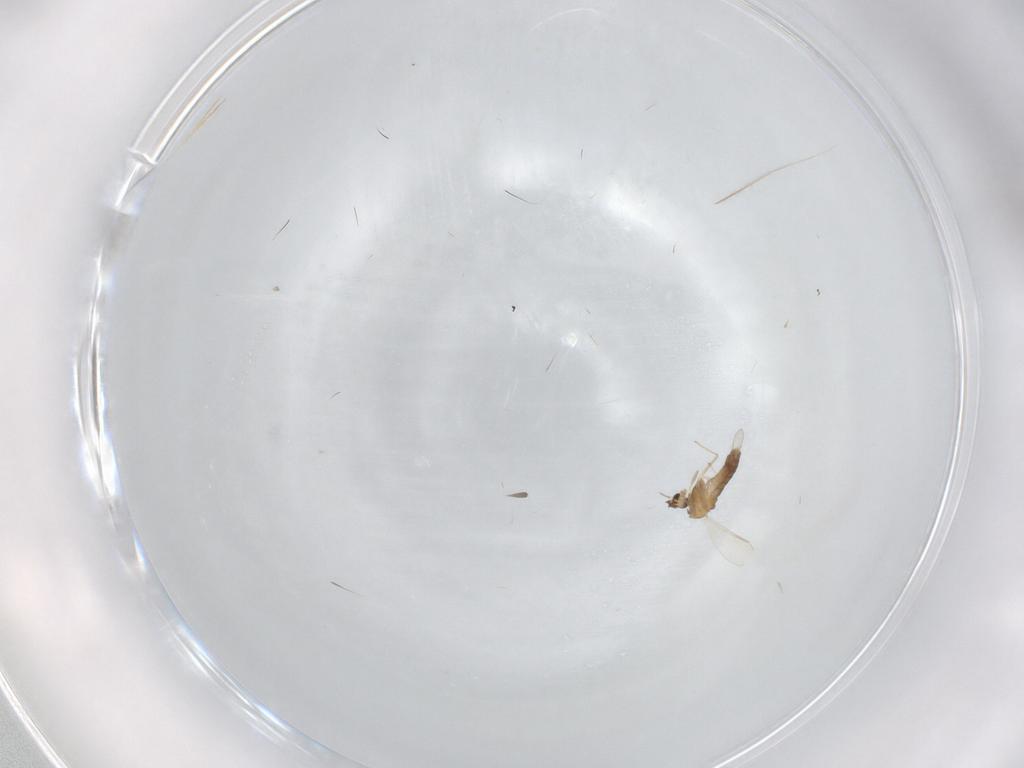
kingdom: Animalia
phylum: Arthropoda
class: Insecta
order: Diptera
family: Chironomidae
